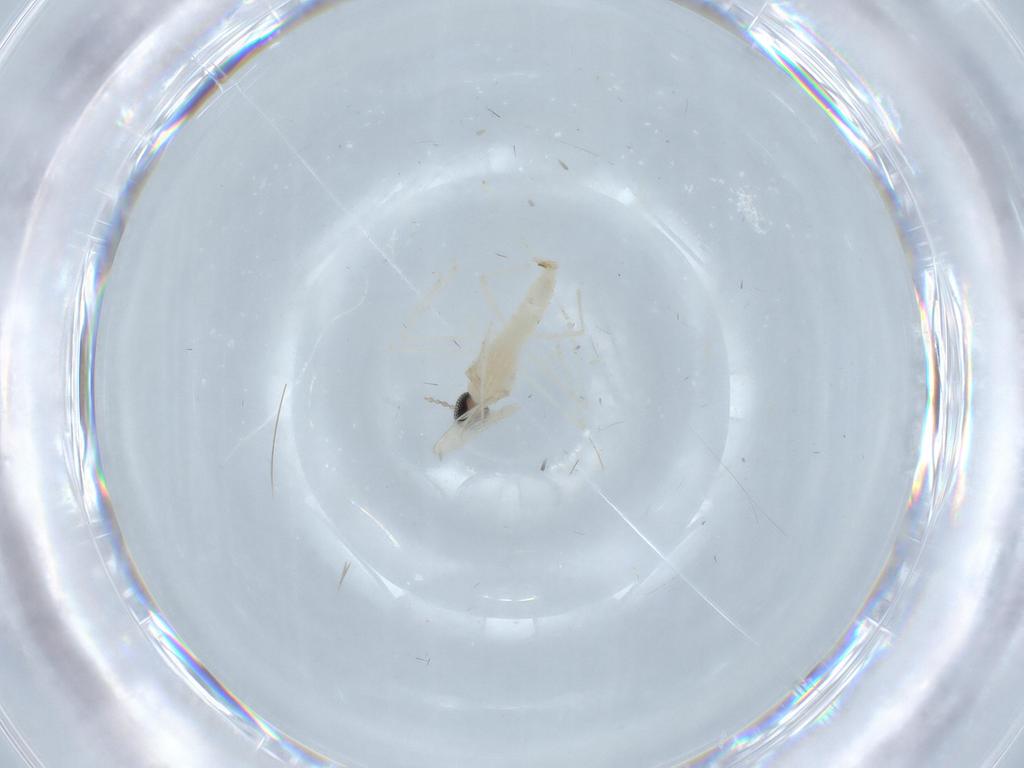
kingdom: Animalia
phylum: Arthropoda
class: Insecta
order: Diptera
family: Cecidomyiidae
